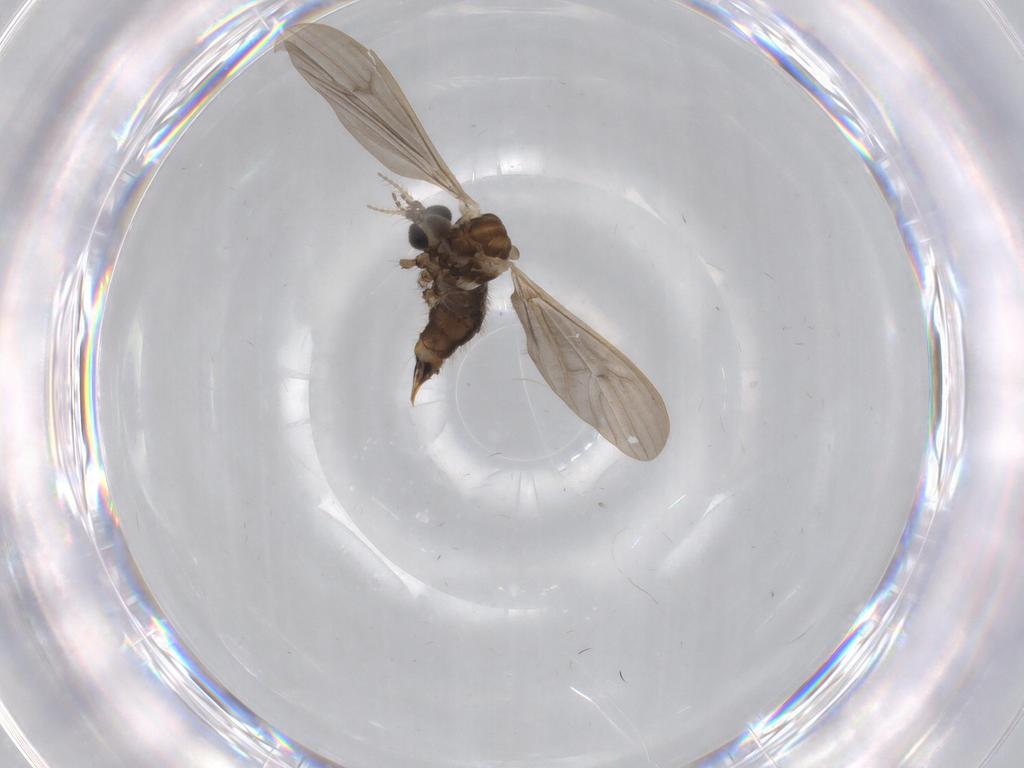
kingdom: Animalia
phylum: Arthropoda
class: Insecta
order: Diptera
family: Limoniidae
